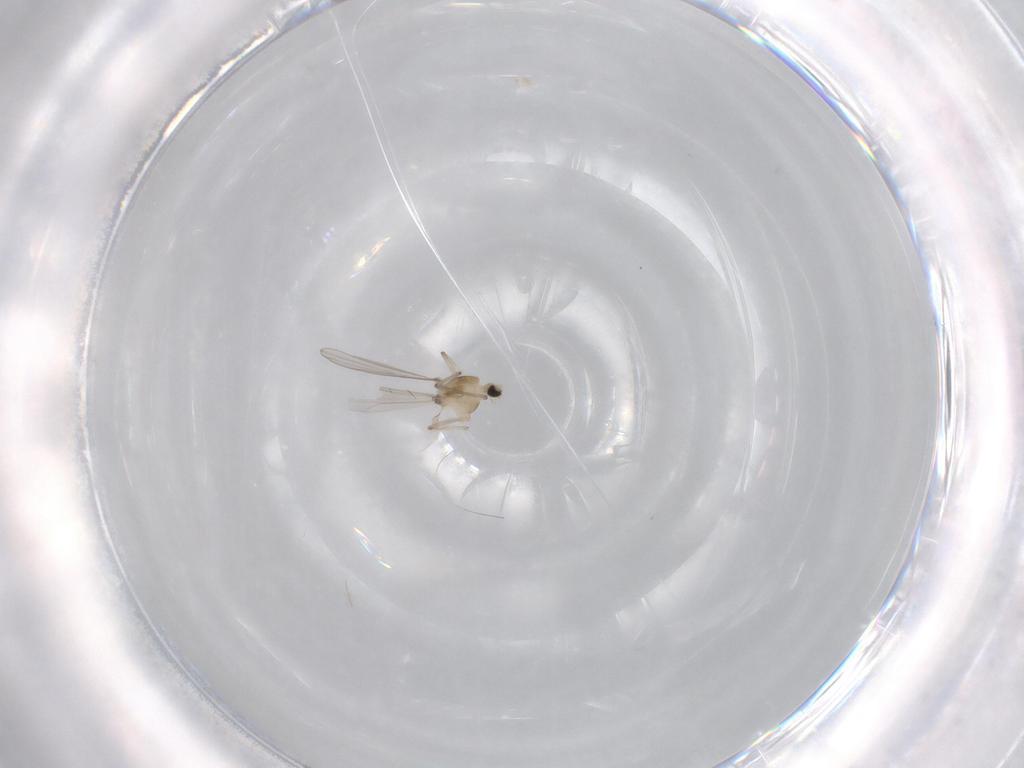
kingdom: Animalia
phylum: Arthropoda
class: Insecta
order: Diptera
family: Chironomidae
